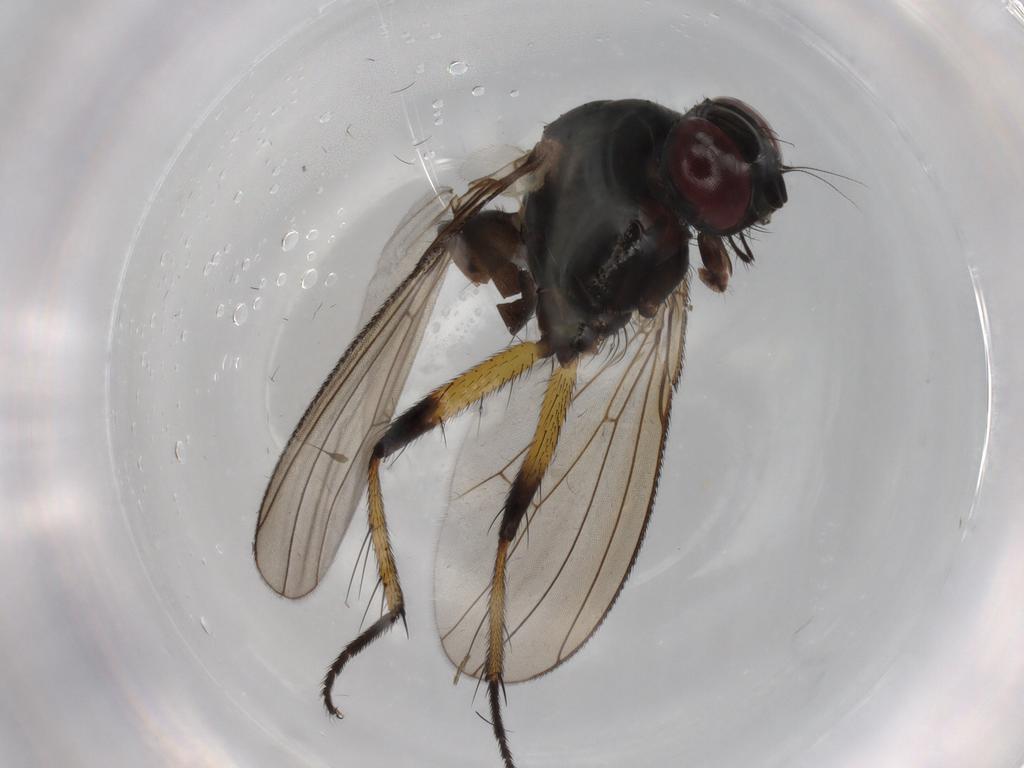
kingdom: Animalia
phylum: Arthropoda
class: Insecta
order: Diptera
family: Muscidae
